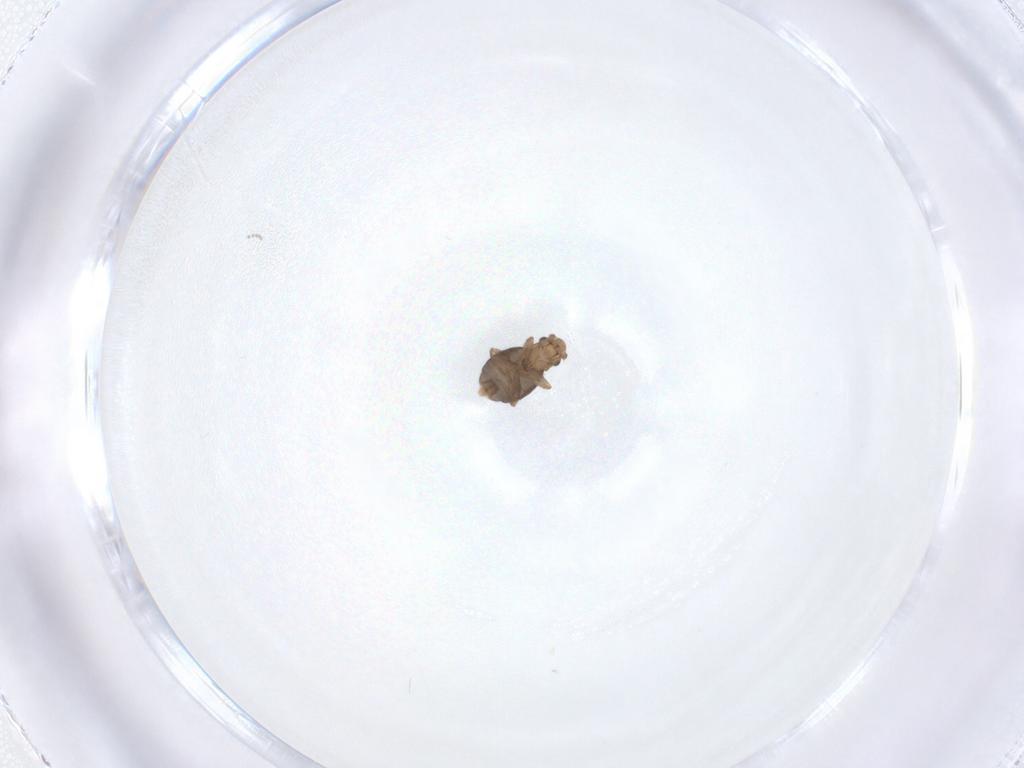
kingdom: Animalia
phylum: Arthropoda
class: Insecta
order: Diptera
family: Phoridae
